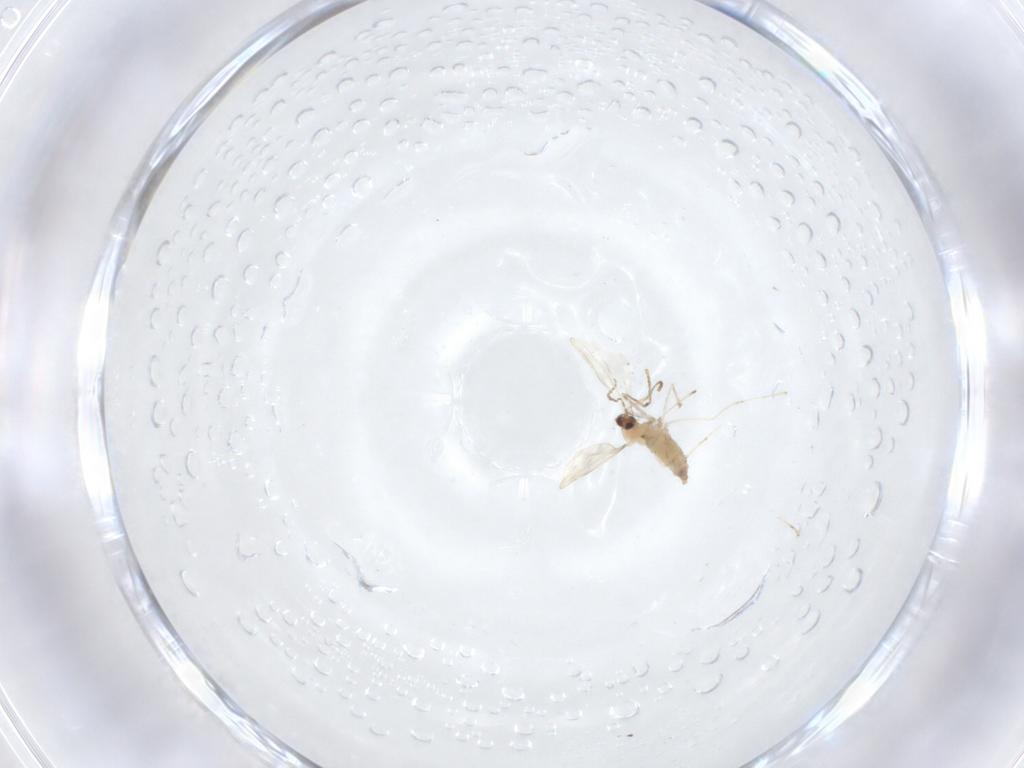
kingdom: Animalia
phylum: Arthropoda
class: Insecta
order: Diptera
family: Cecidomyiidae
